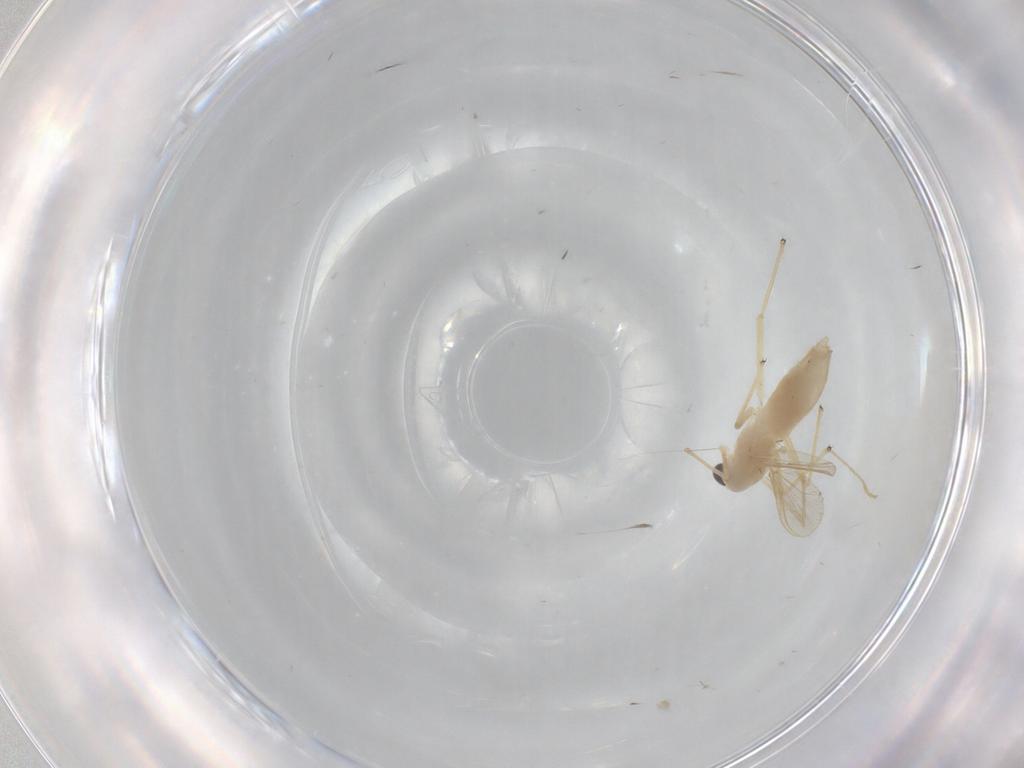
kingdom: Animalia
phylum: Arthropoda
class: Insecta
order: Diptera
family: Chironomidae
